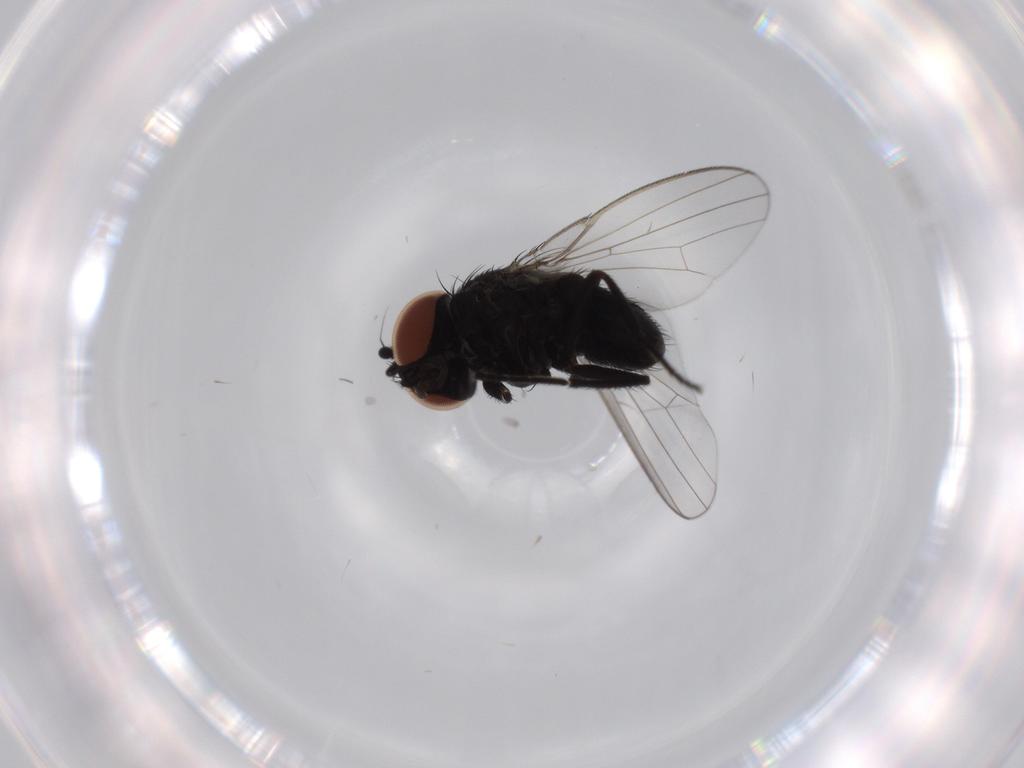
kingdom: Animalia
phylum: Arthropoda
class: Insecta
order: Diptera
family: Milichiidae
